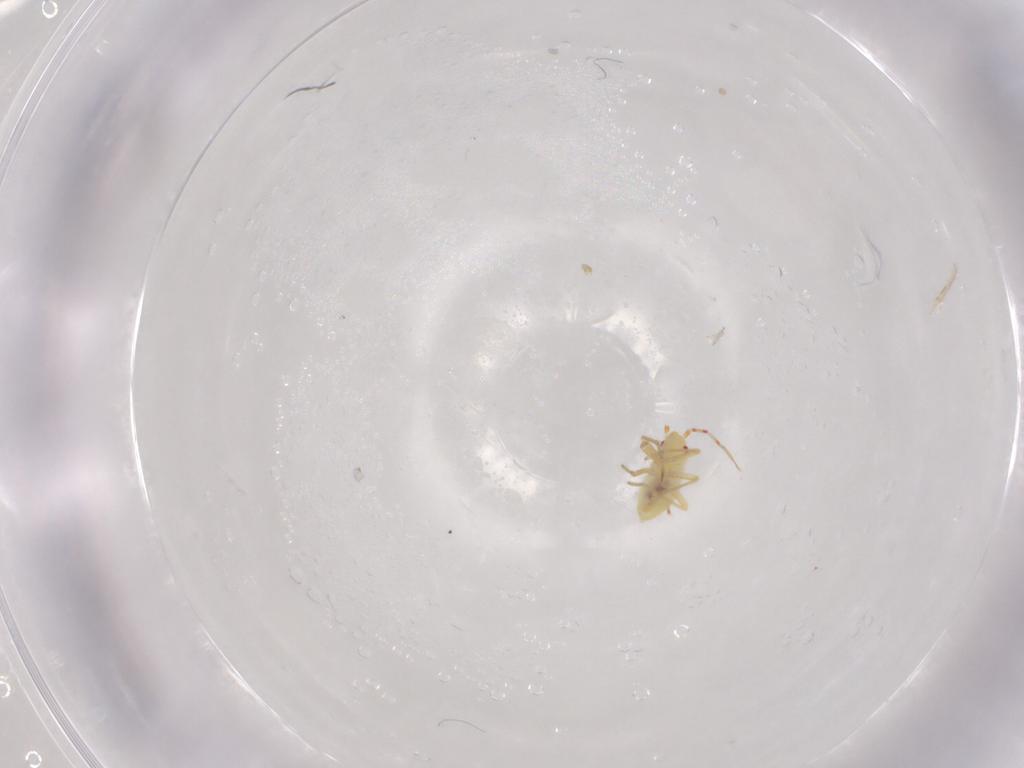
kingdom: Animalia
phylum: Arthropoda
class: Insecta
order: Hemiptera
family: Miridae
